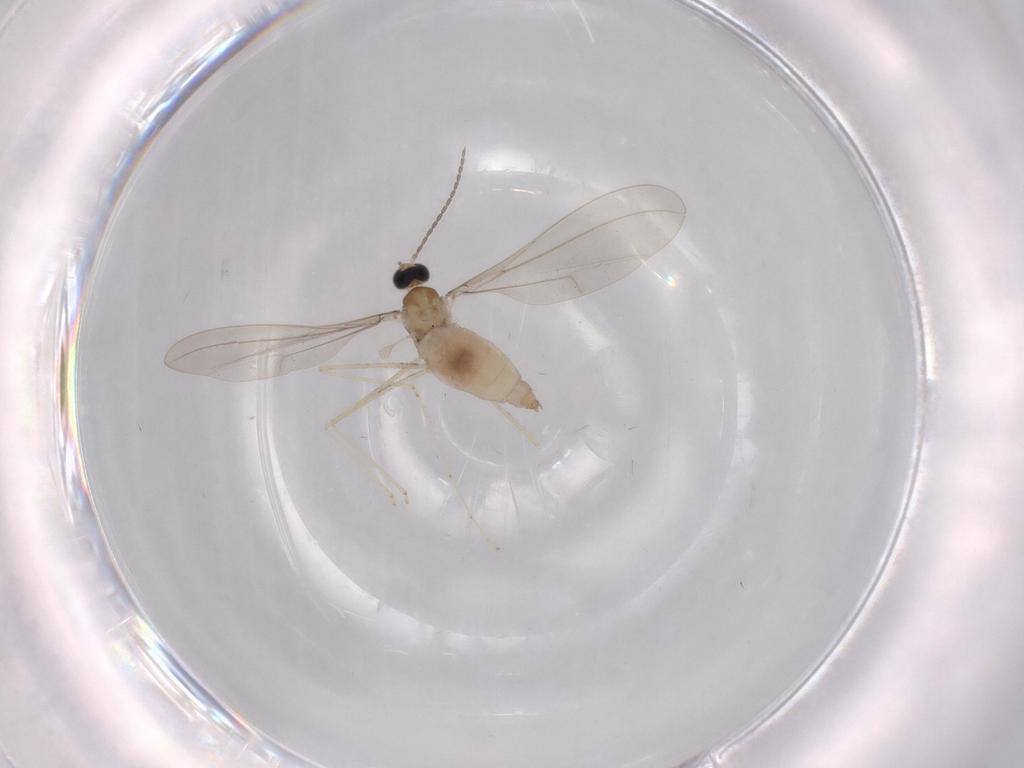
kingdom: Animalia
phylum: Arthropoda
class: Insecta
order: Diptera
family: Cecidomyiidae
